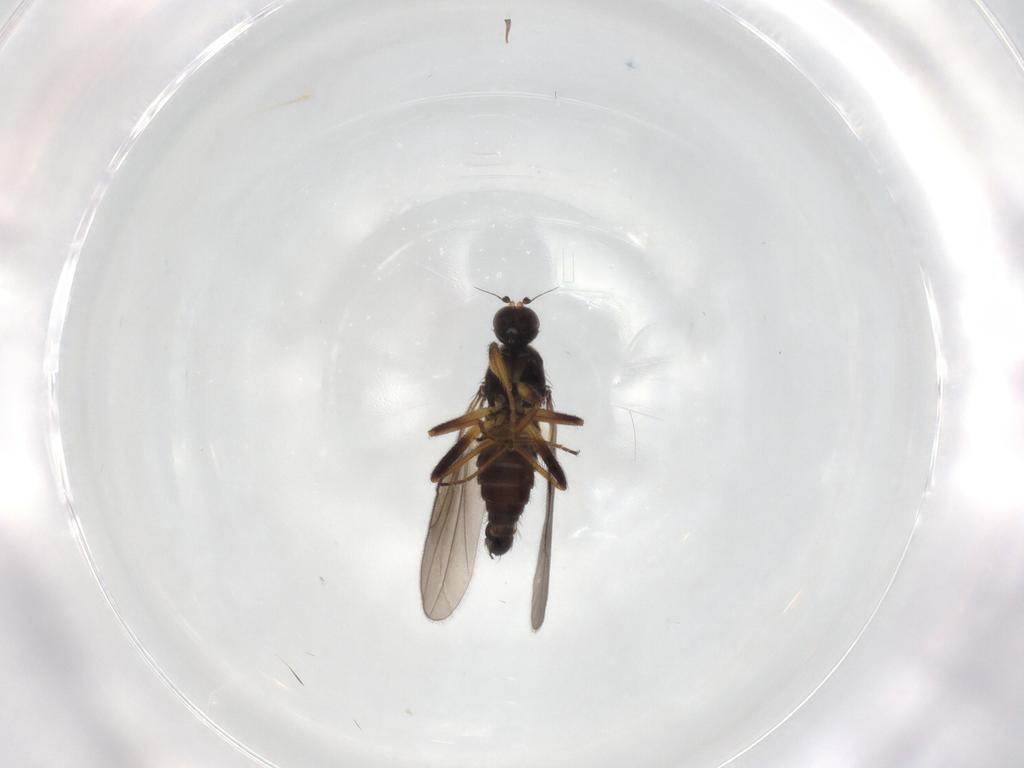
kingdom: Animalia
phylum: Arthropoda
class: Insecta
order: Diptera
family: Hybotidae
